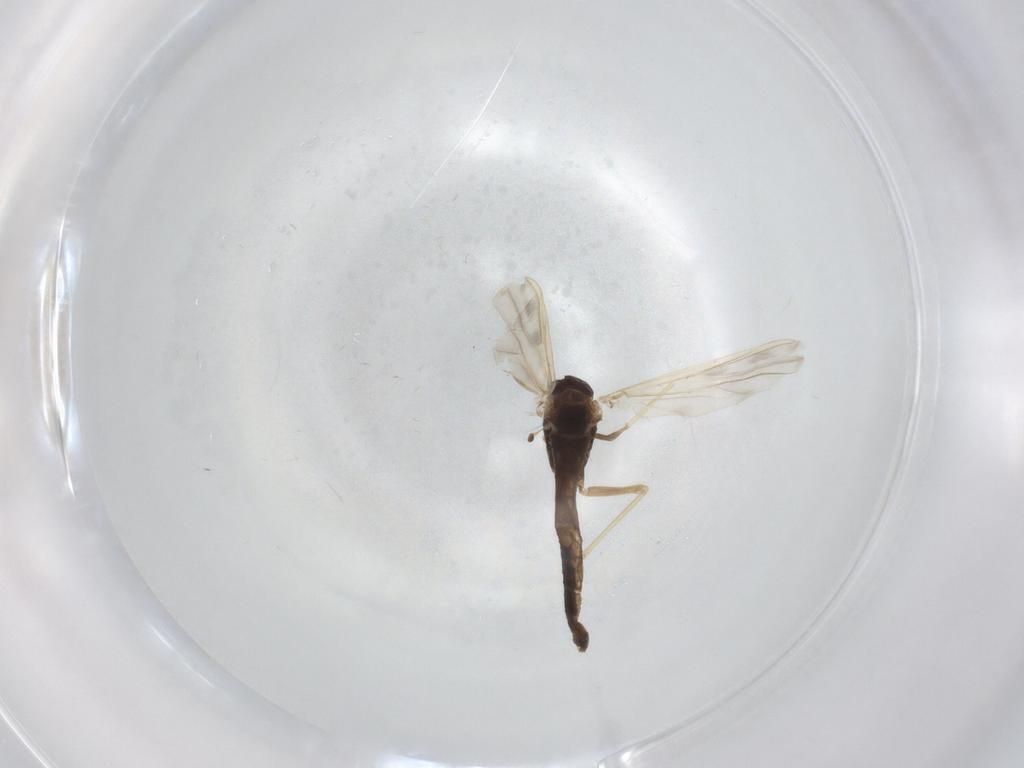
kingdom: Animalia
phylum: Arthropoda
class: Insecta
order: Diptera
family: Chironomidae
